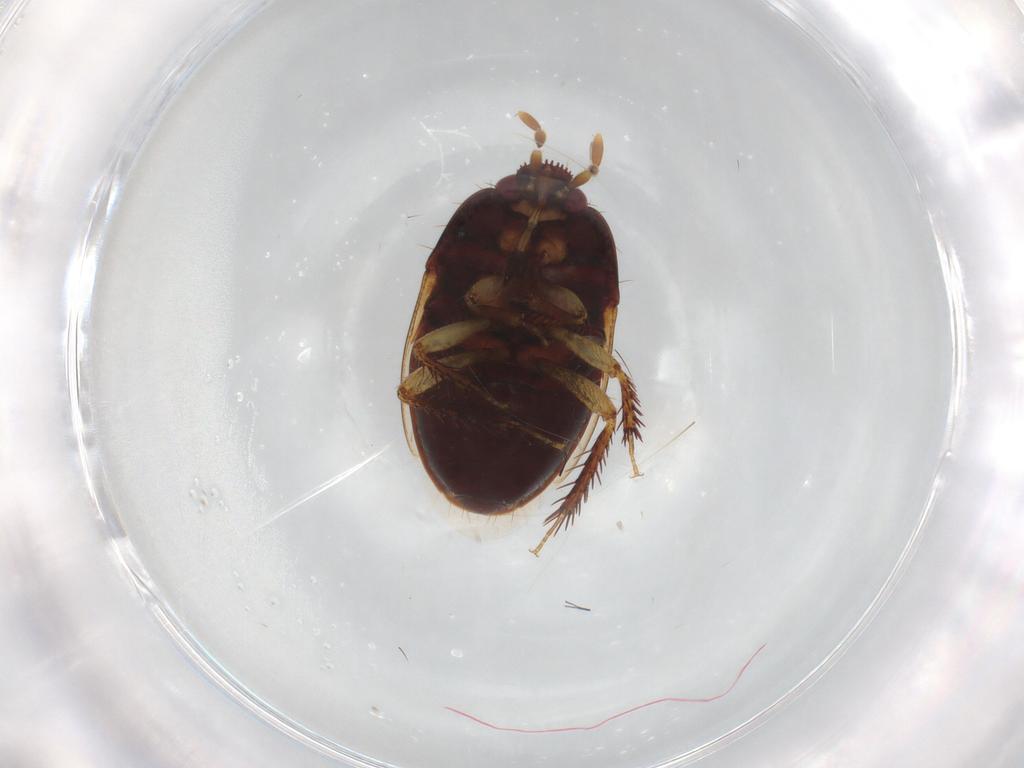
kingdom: Animalia
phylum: Arthropoda
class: Insecta
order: Hemiptera
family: Cydnidae
